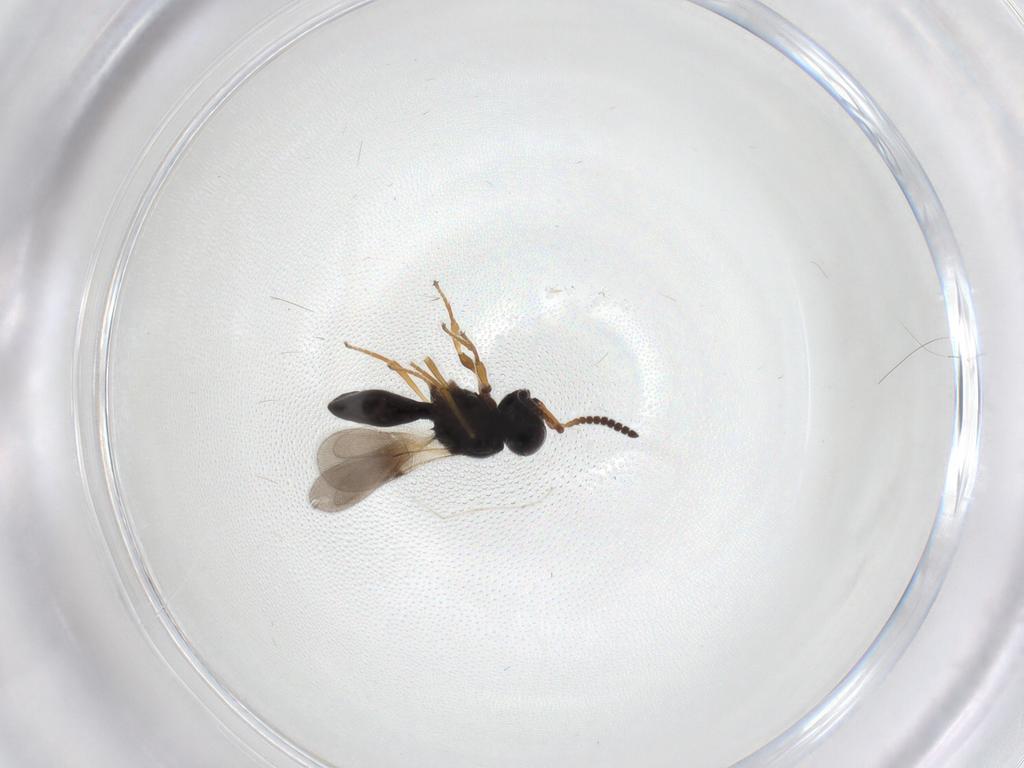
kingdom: Animalia
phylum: Arthropoda
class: Insecta
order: Hymenoptera
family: Scelionidae
